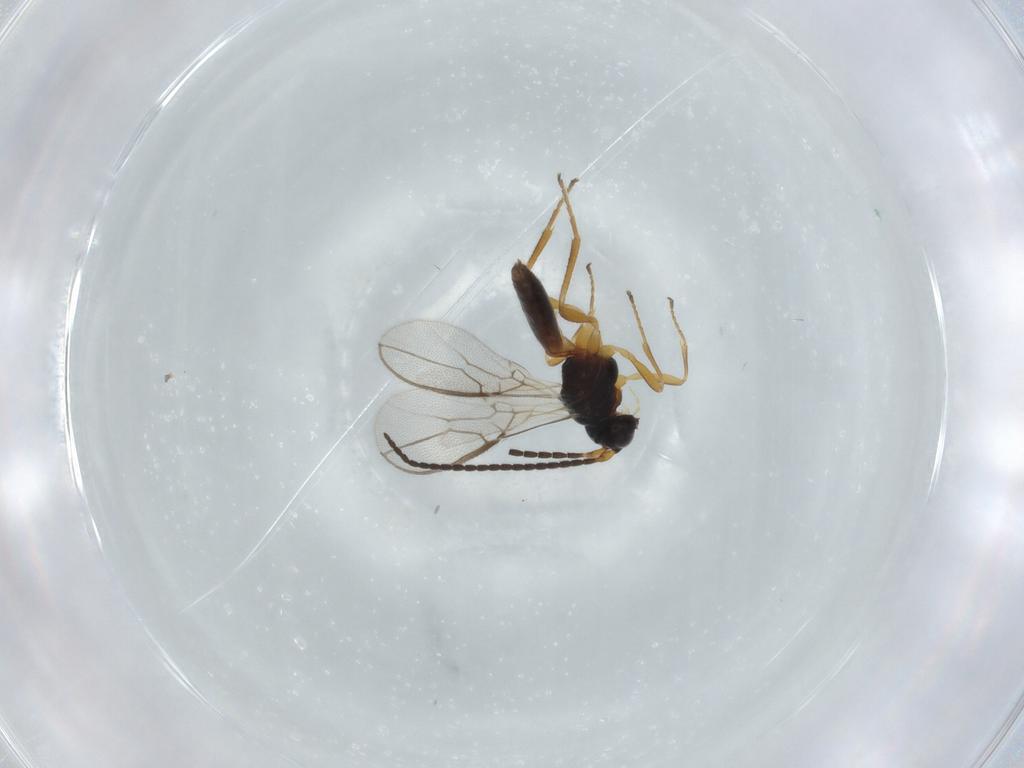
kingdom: Animalia
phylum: Arthropoda
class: Insecta
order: Hymenoptera
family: Braconidae
